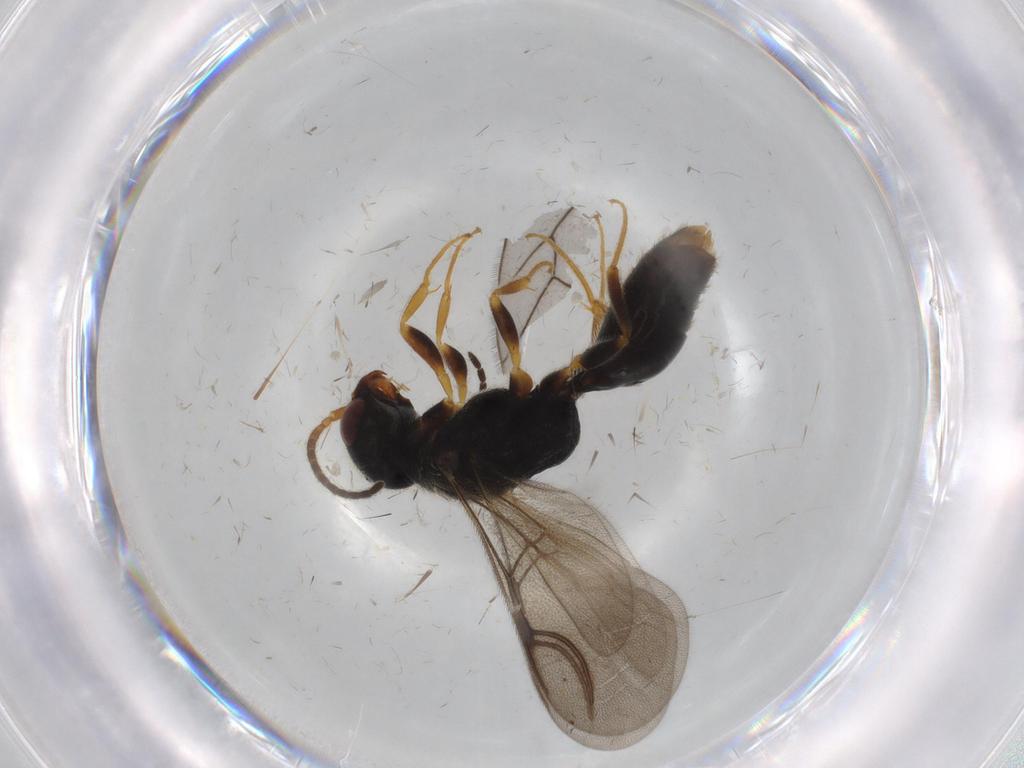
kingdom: Animalia
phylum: Arthropoda
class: Insecta
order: Hymenoptera
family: Bethylidae
